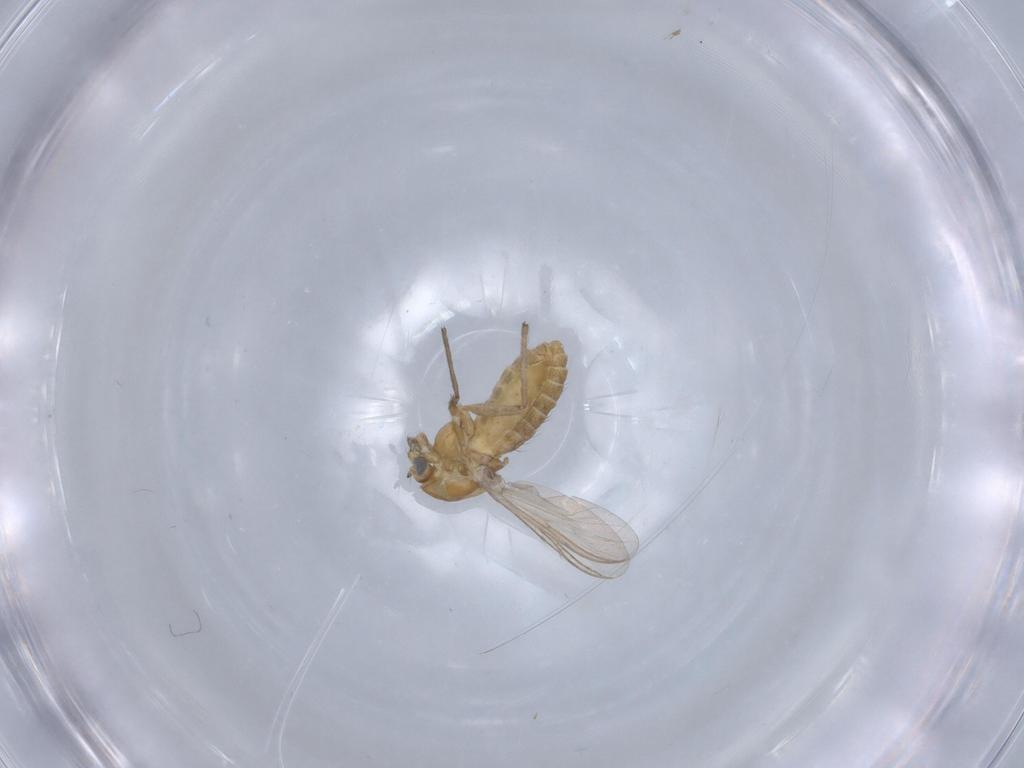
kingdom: Animalia
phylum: Arthropoda
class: Insecta
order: Diptera
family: Chironomidae
